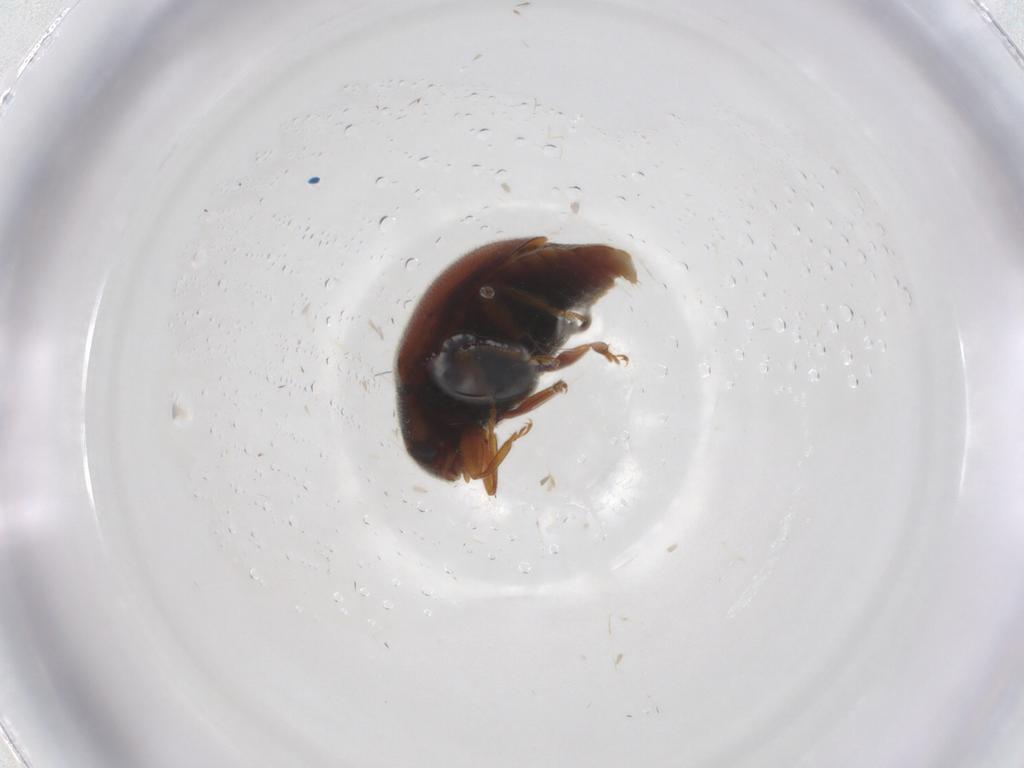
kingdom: Animalia
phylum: Arthropoda
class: Insecta
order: Coleoptera
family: Coccinellidae
